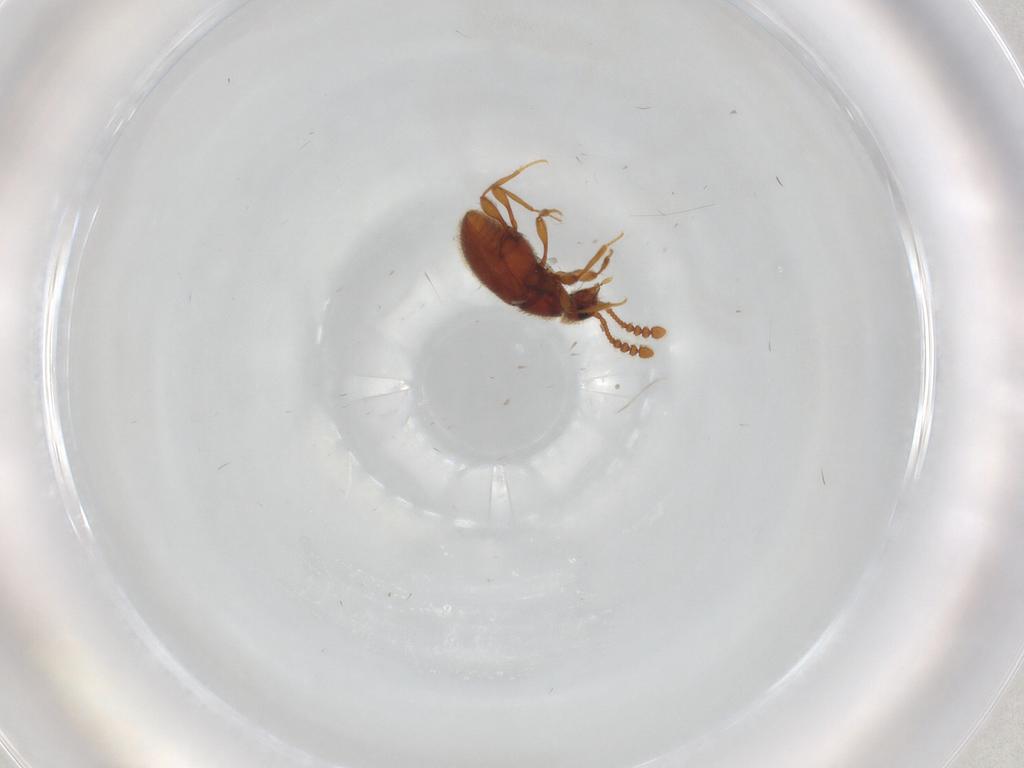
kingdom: Animalia
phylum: Arthropoda
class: Insecta
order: Coleoptera
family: Staphylinidae
